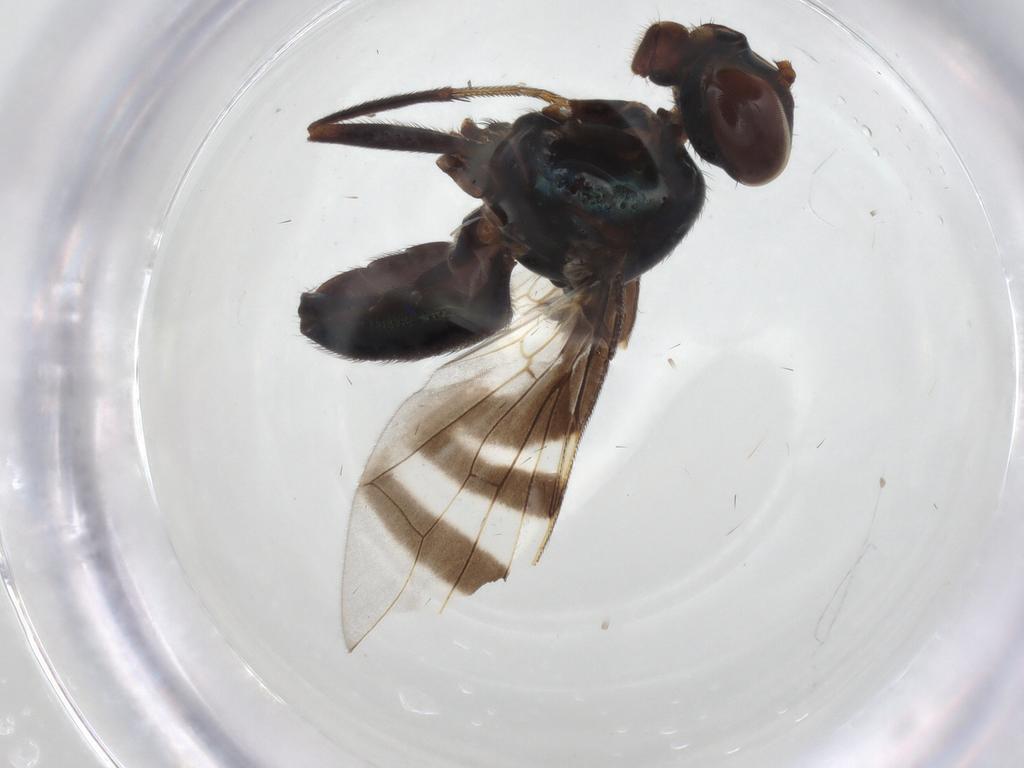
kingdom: Animalia
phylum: Arthropoda
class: Insecta
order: Diptera
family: Platystomatidae
